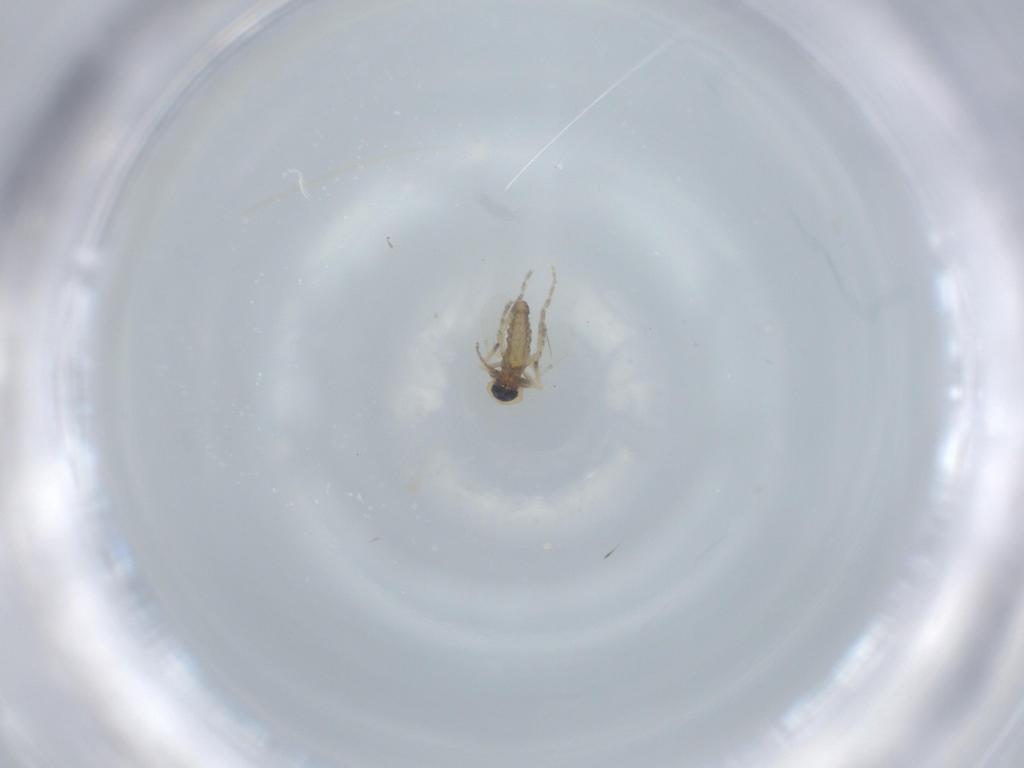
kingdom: Animalia
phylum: Arthropoda
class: Insecta
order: Diptera
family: Ceratopogonidae
